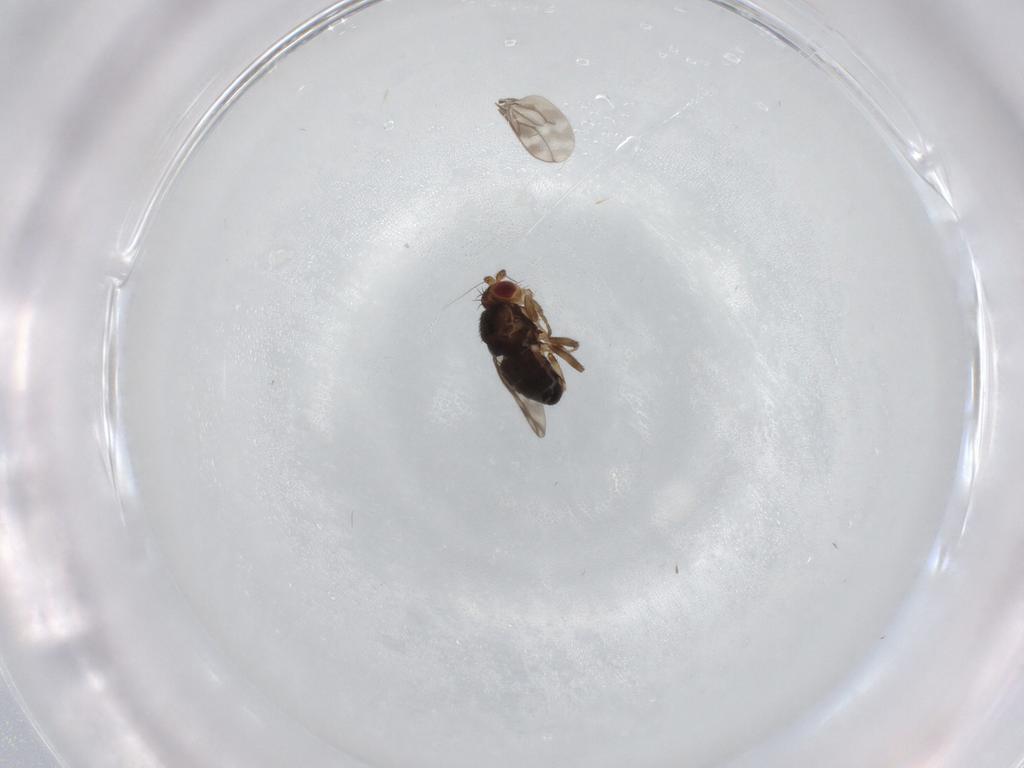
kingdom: Animalia
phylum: Arthropoda
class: Insecta
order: Diptera
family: Sphaeroceridae
